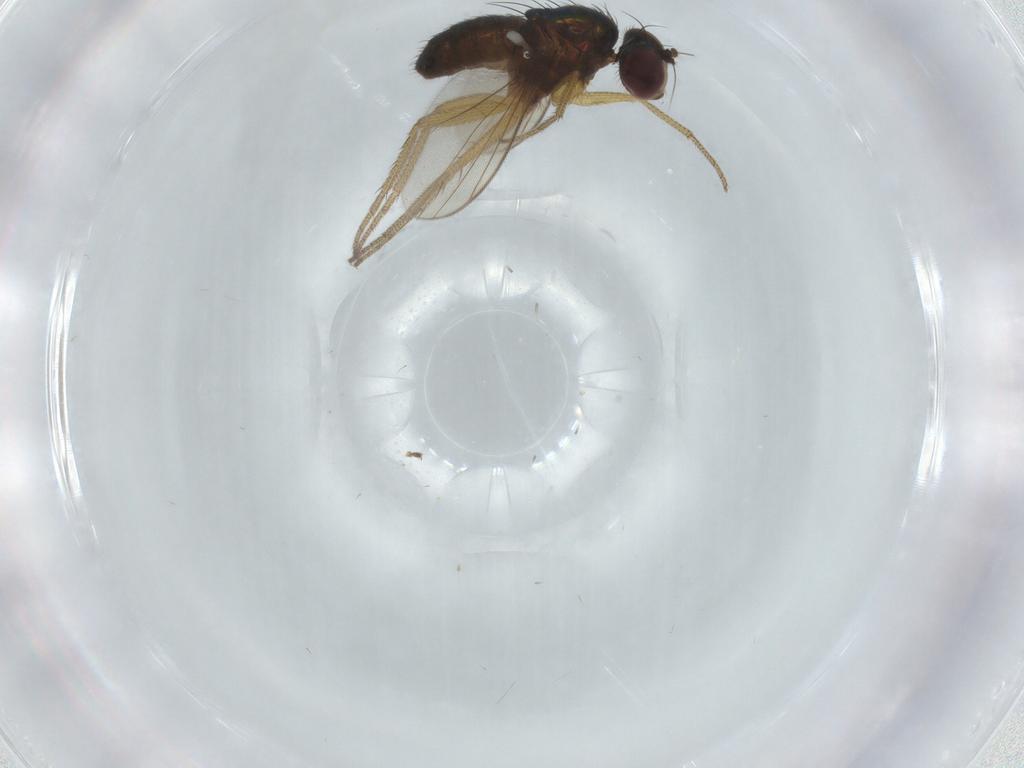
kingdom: Animalia
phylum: Arthropoda
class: Insecta
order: Diptera
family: Dolichopodidae
